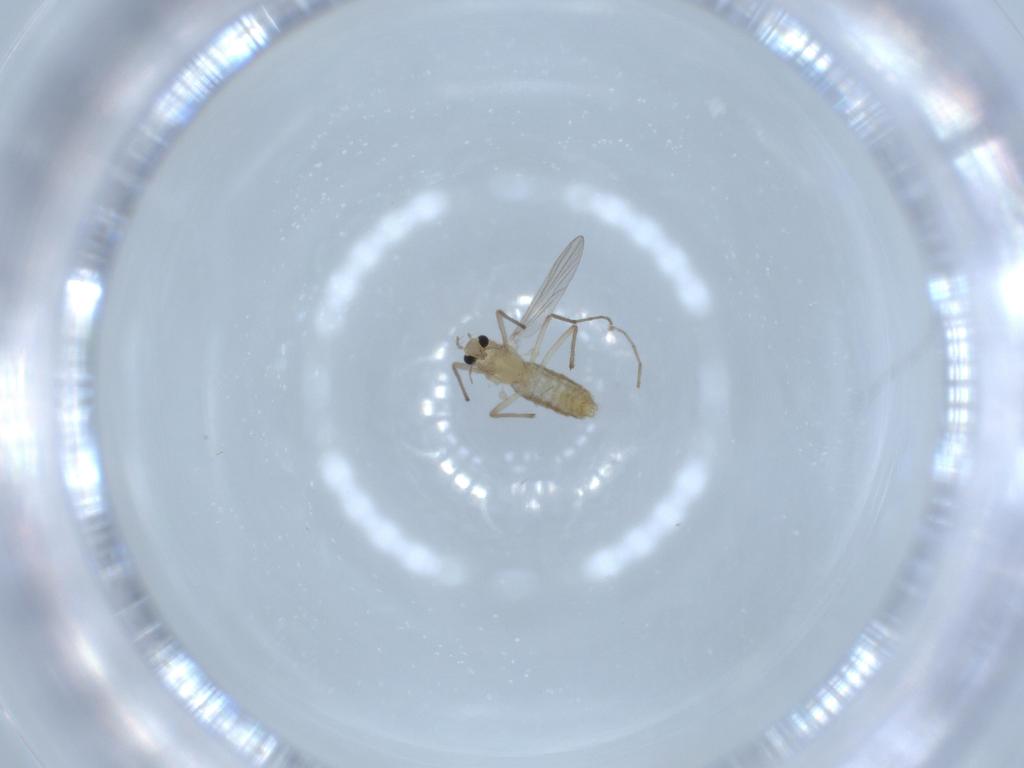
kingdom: Animalia
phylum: Arthropoda
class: Insecta
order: Diptera
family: Chironomidae
